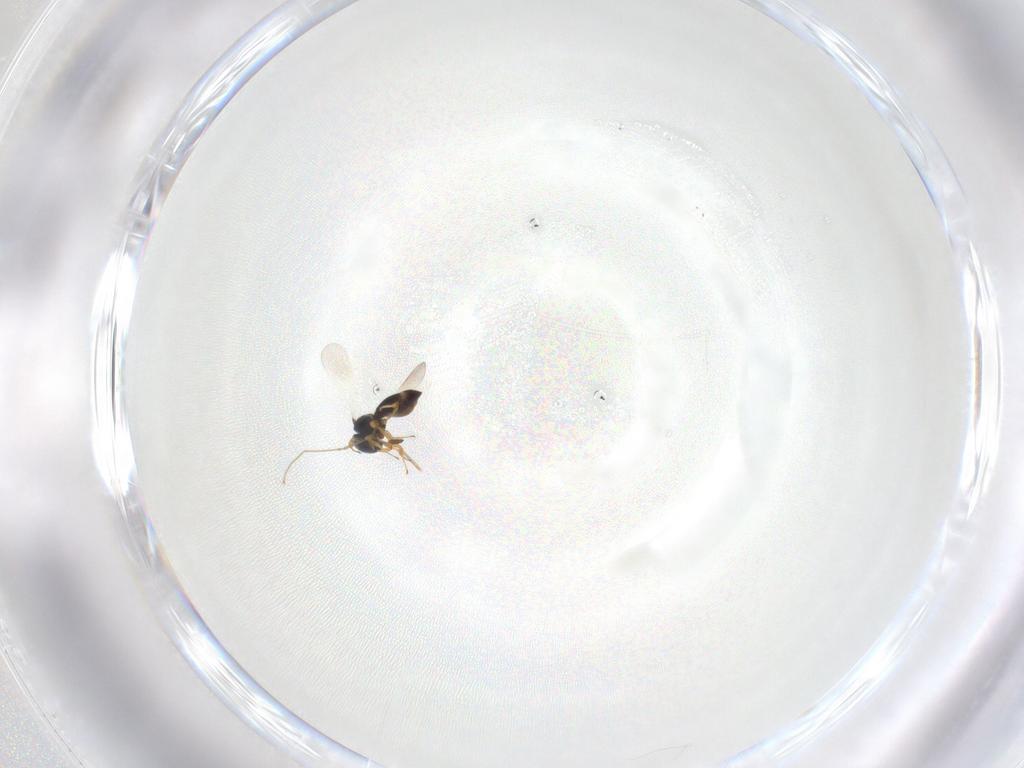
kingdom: Animalia
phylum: Arthropoda
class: Insecta
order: Hymenoptera
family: Platygastridae
